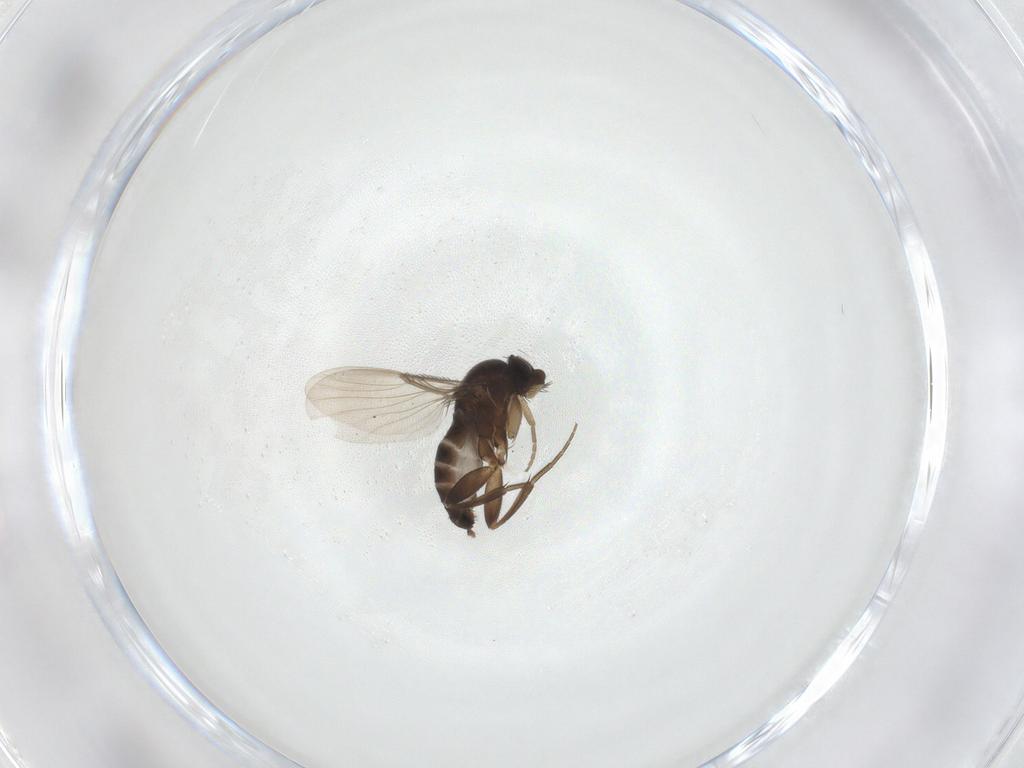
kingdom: Animalia
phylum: Arthropoda
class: Insecta
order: Diptera
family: Phoridae
